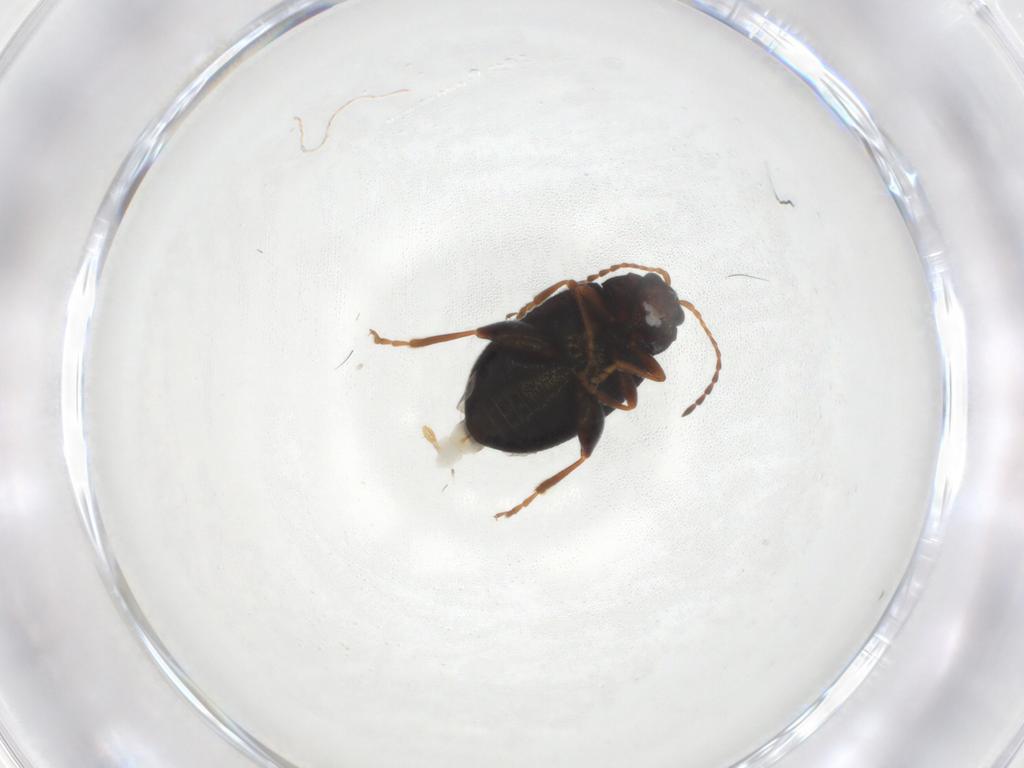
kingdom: Animalia
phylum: Arthropoda
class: Insecta
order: Coleoptera
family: Chrysomelidae
